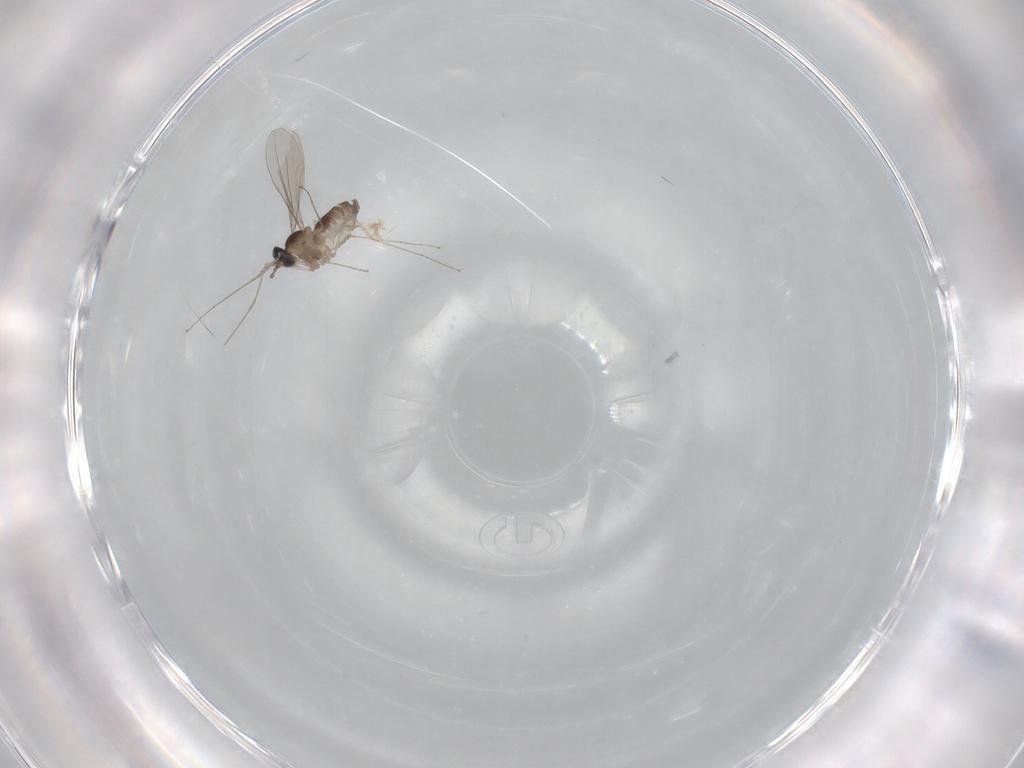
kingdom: Animalia
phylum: Arthropoda
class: Insecta
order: Diptera
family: Cecidomyiidae
